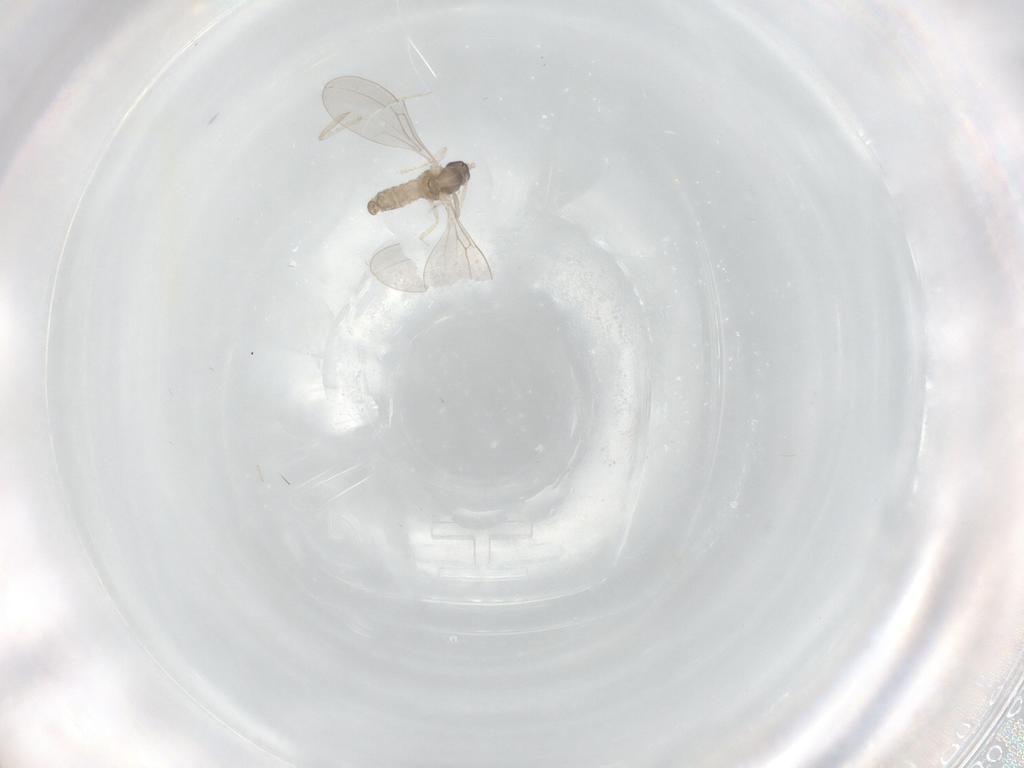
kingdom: Animalia
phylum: Arthropoda
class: Insecta
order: Diptera
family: Cecidomyiidae
